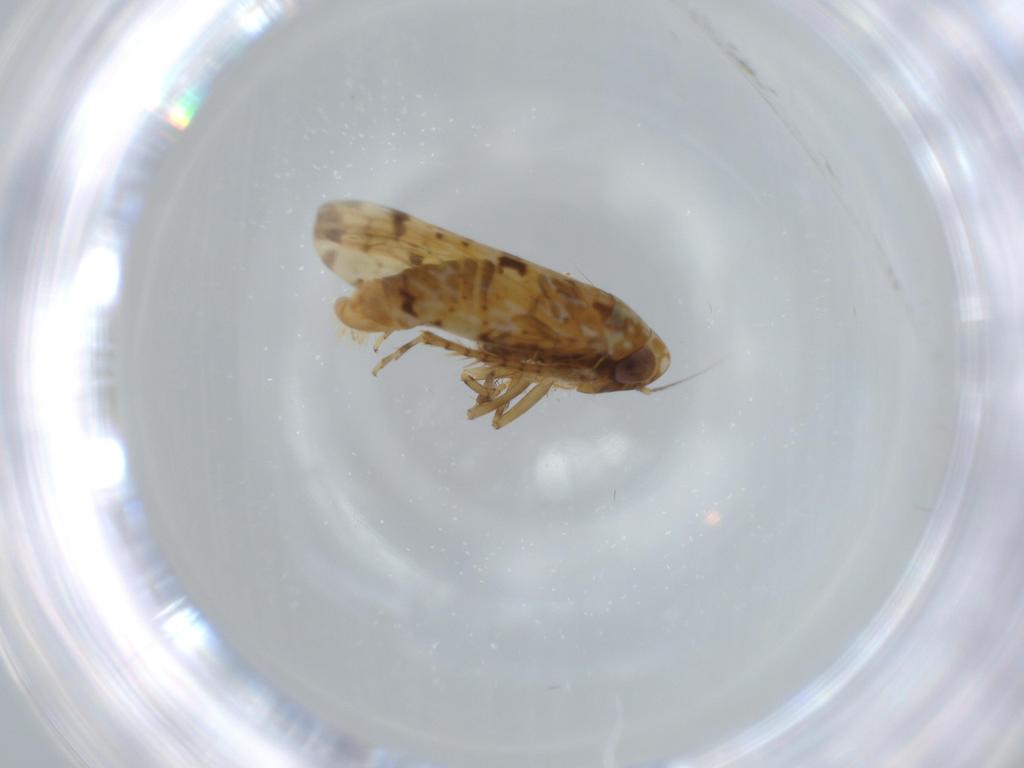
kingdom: Animalia
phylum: Arthropoda
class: Insecta
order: Hemiptera
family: Cicadellidae
